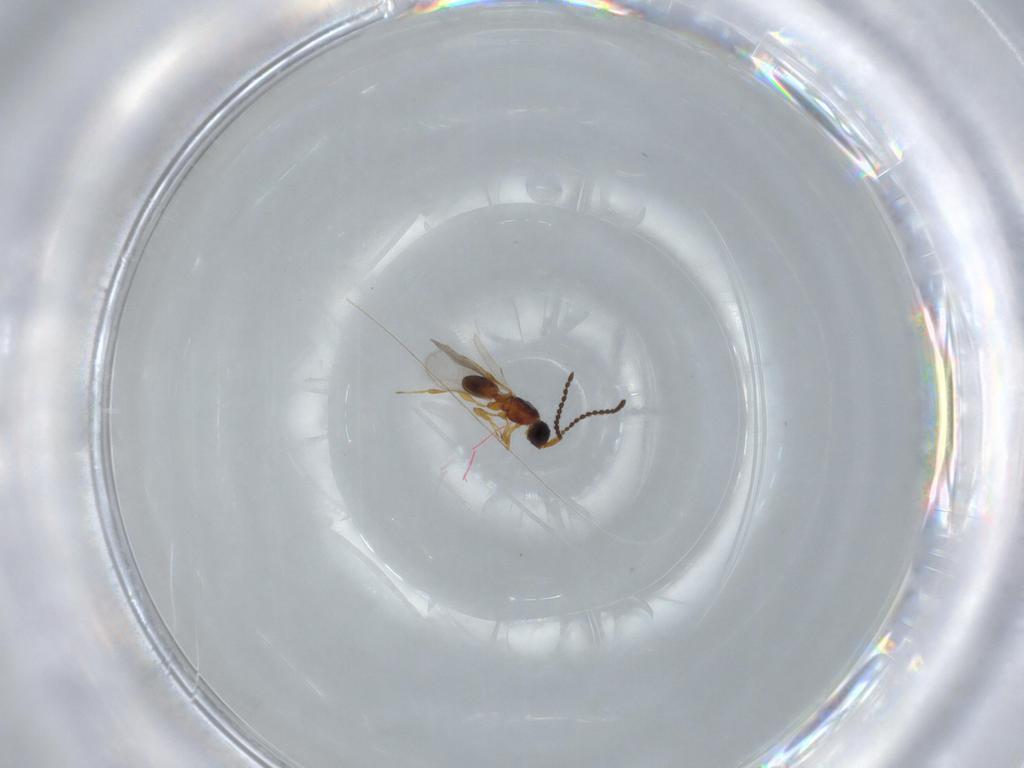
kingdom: Animalia
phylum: Arthropoda
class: Insecta
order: Hymenoptera
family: Diapriidae
